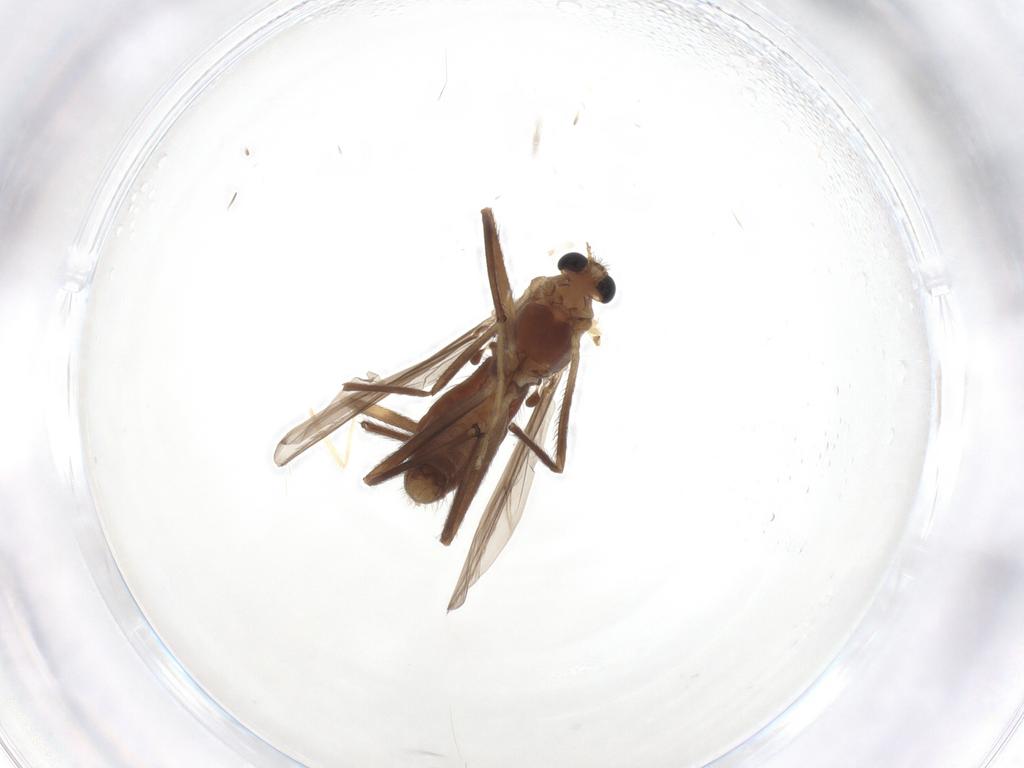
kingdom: Animalia
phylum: Arthropoda
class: Insecta
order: Diptera
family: Chironomidae
